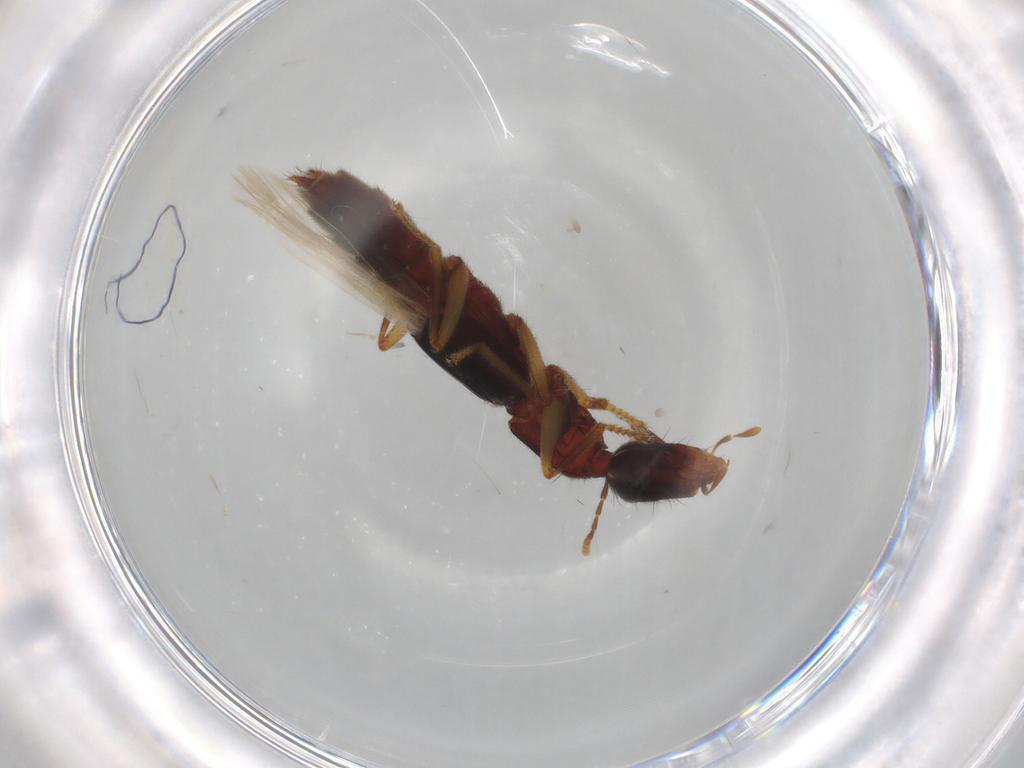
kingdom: Animalia
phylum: Arthropoda
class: Insecta
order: Coleoptera
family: Staphylinidae
